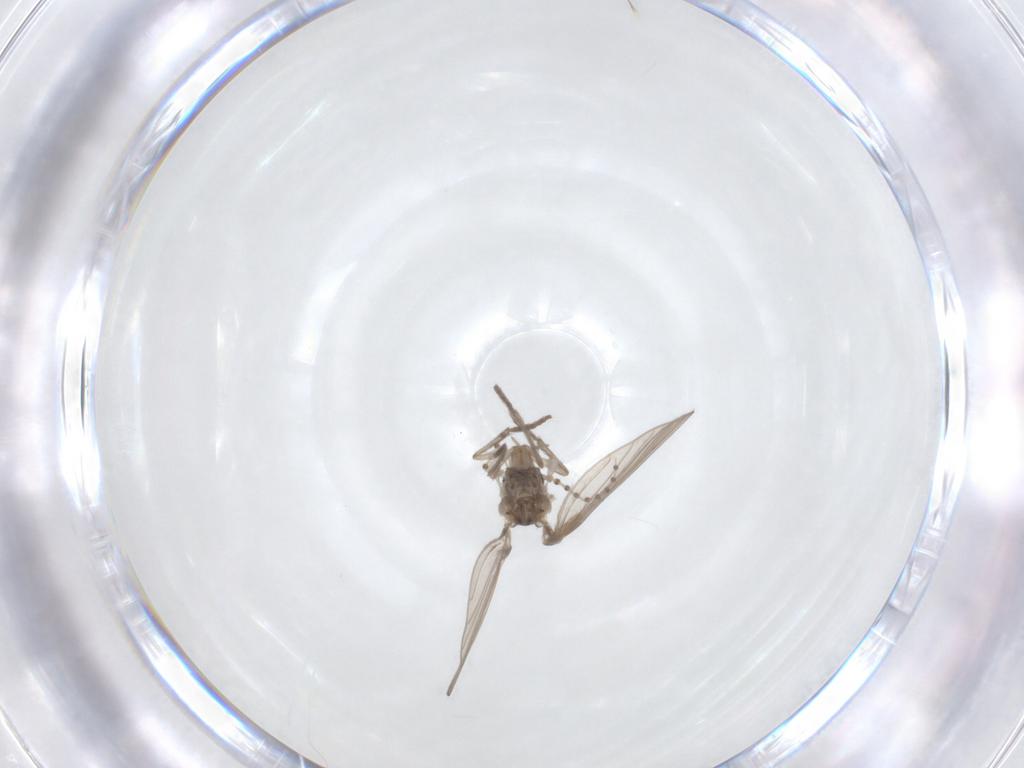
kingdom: Animalia
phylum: Arthropoda
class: Insecta
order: Diptera
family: Psychodidae
